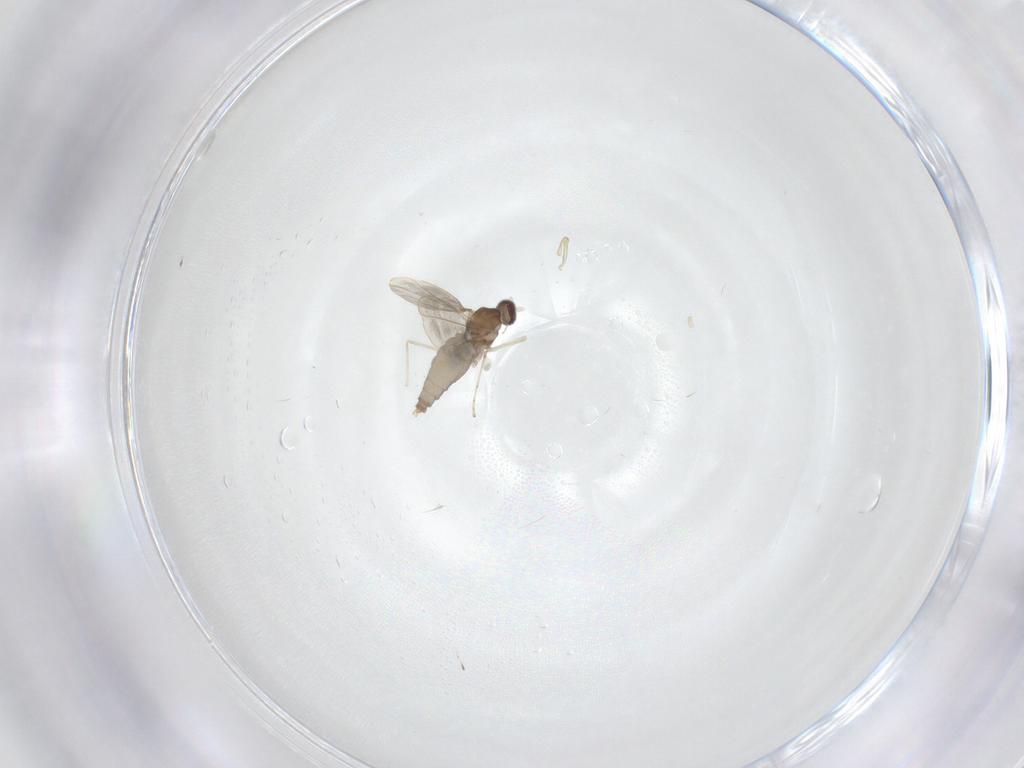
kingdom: Animalia
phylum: Arthropoda
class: Insecta
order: Diptera
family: Cecidomyiidae
